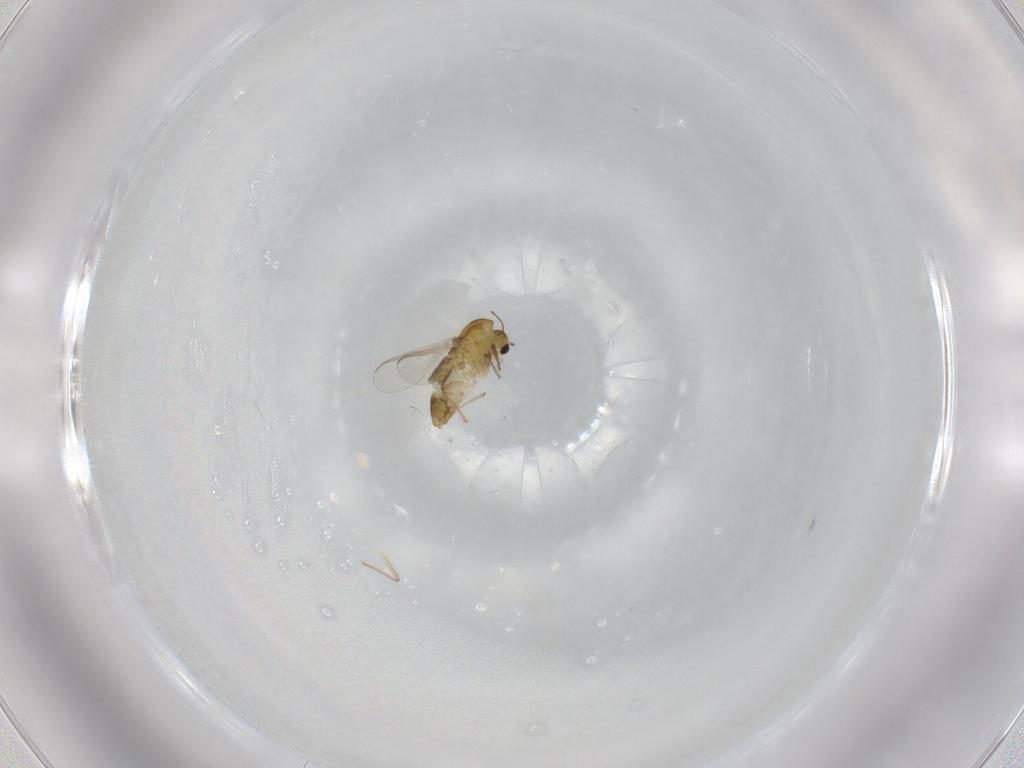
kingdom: Animalia
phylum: Arthropoda
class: Insecta
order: Diptera
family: Chironomidae
